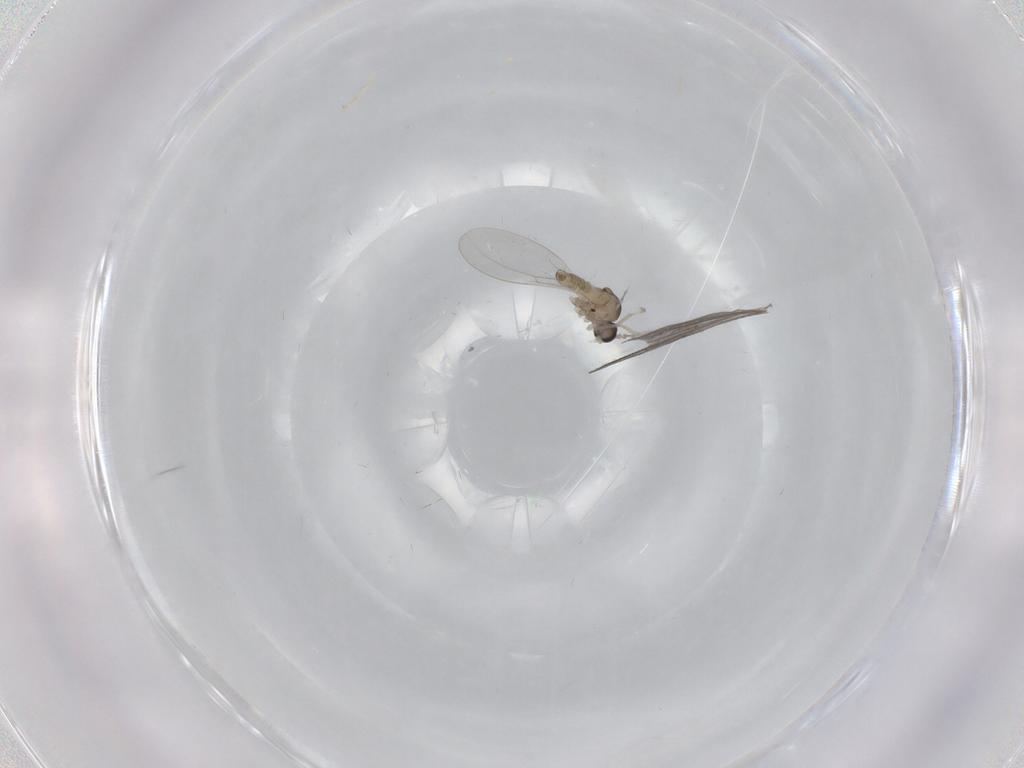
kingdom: Animalia
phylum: Arthropoda
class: Insecta
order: Diptera
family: Cecidomyiidae
